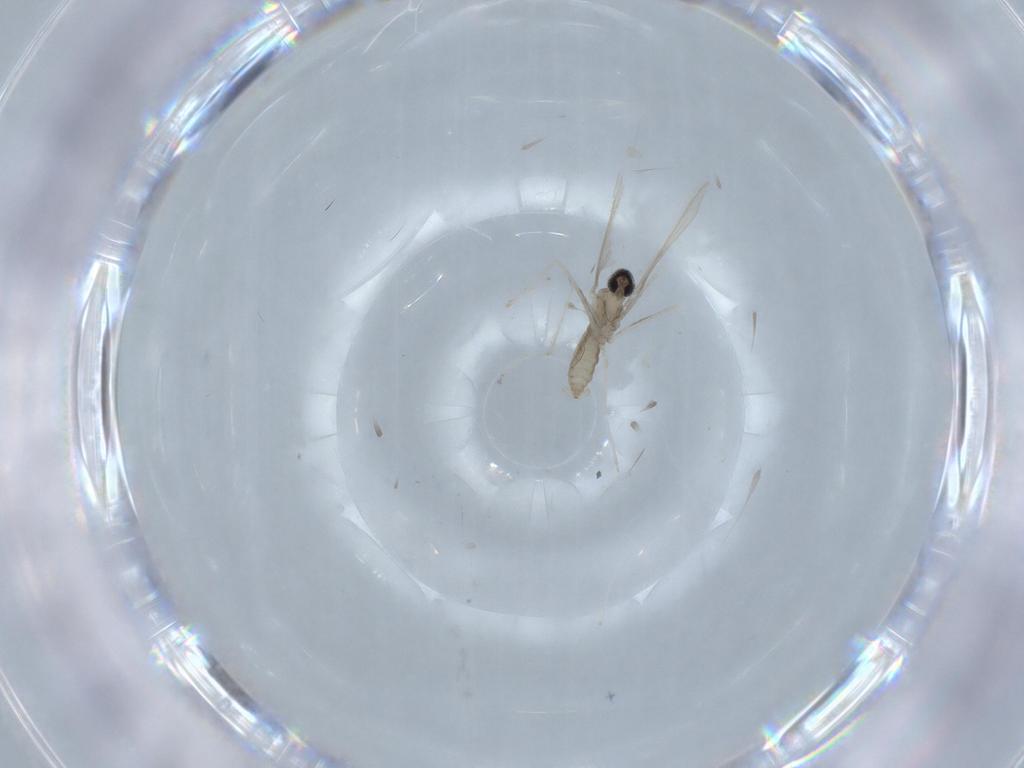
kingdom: Animalia
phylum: Arthropoda
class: Insecta
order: Diptera
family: Cecidomyiidae
